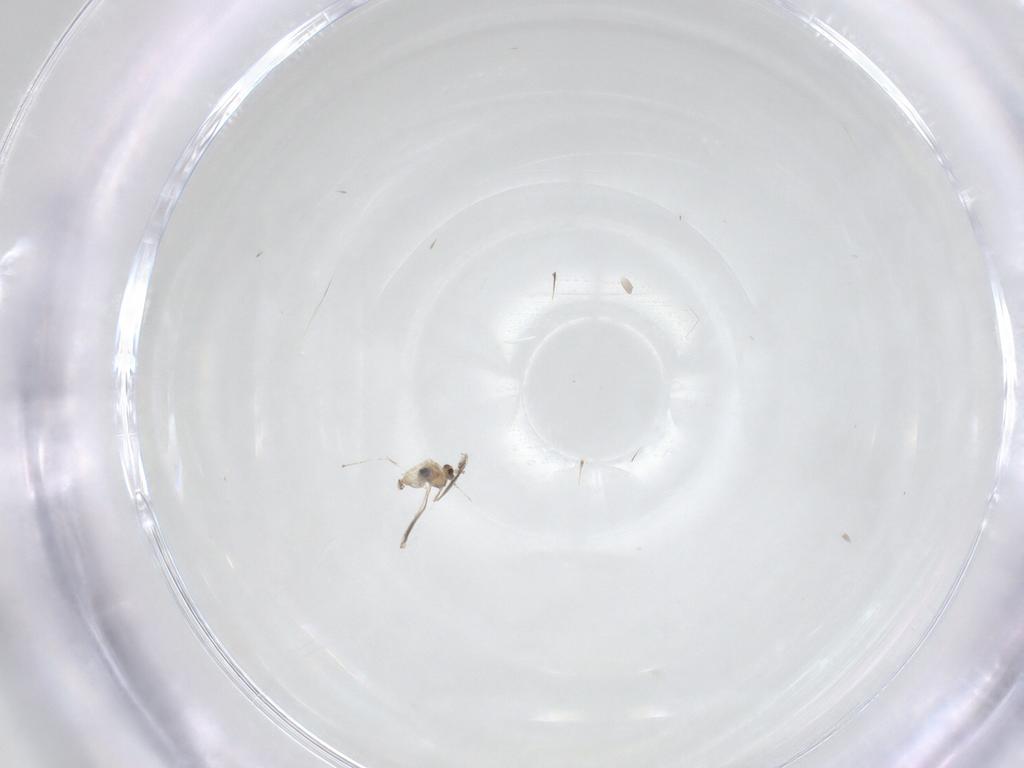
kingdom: Animalia
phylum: Arthropoda
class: Insecta
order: Diptera
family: Cecidomyiidae
